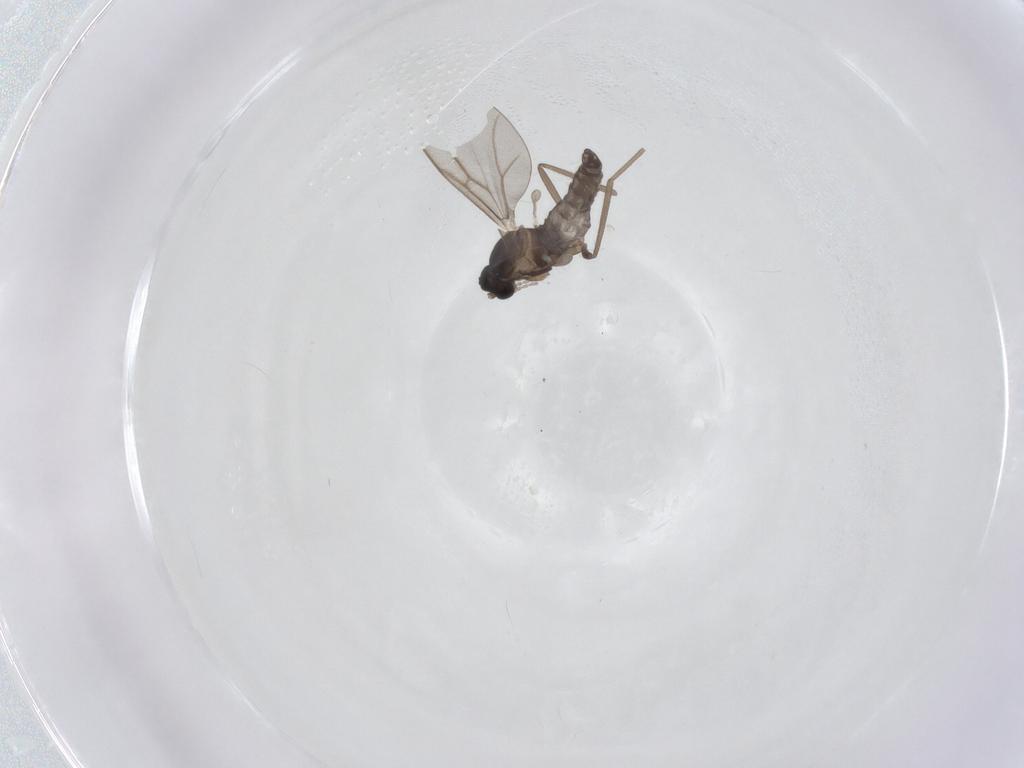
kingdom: Animalia
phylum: Arthropoda
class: Insecta
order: Diptera
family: Cecidomyiidae
